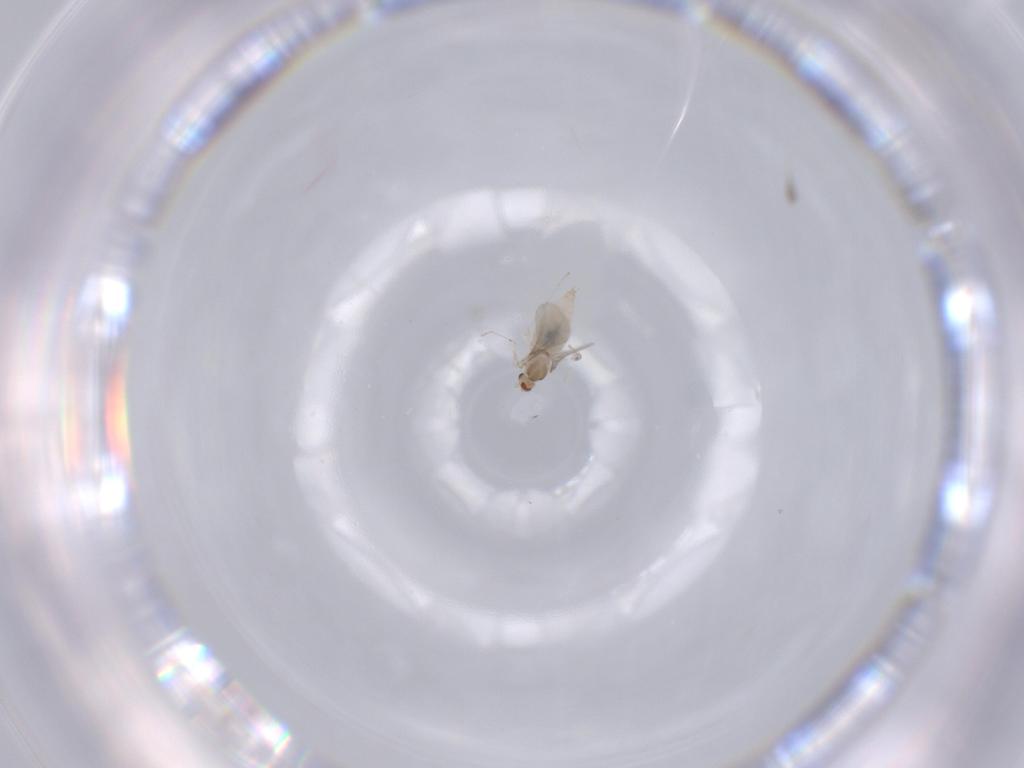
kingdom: Animalia
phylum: Arthropoda
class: Insecta
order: Diptera
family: Cecidomyiidae
